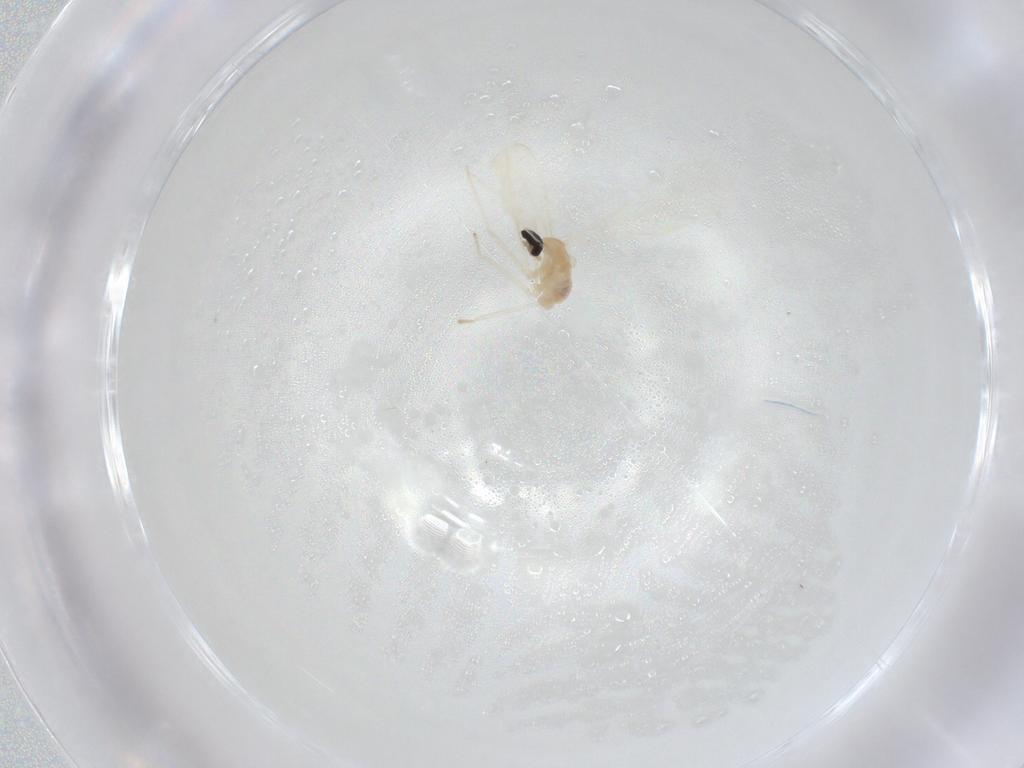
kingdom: Animalia
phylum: Arthropoda
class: Insecta
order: Diptera
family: Cecidomyiidae
